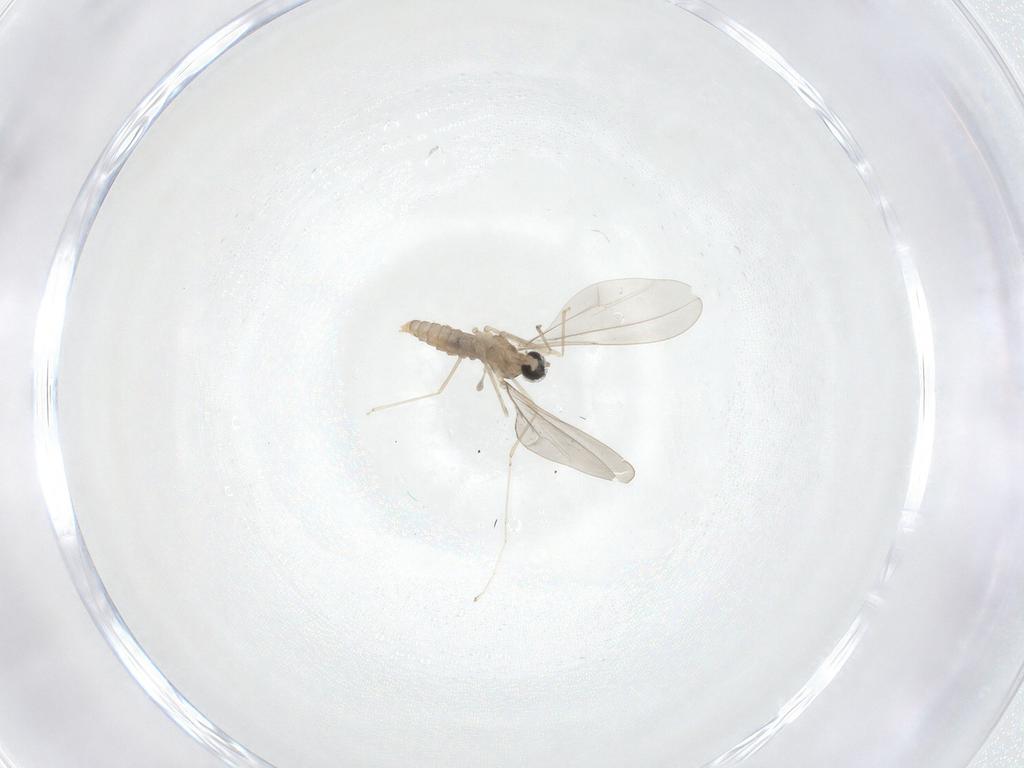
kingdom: Animalia
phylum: Arthropoda
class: Insecta
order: Diptera
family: Cecidomyiidae
